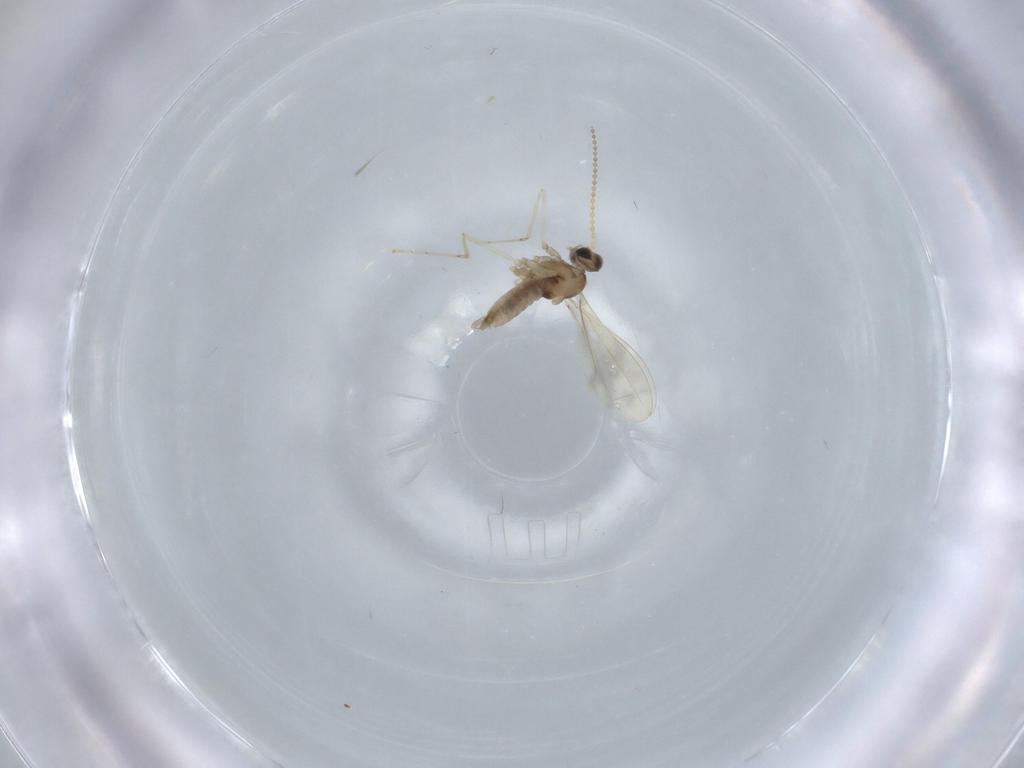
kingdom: Animalia
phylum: Arthropoda
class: Insecta
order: Diptera
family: Cecidomyiidae
